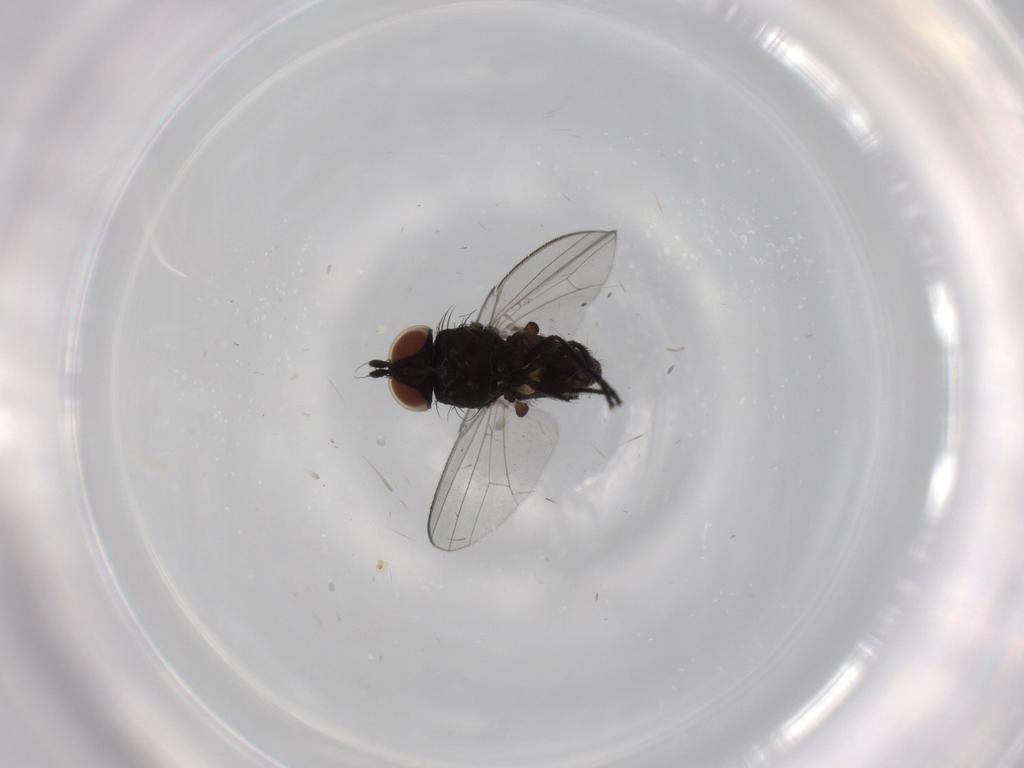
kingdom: Animalia
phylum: Arthropoda
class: Insecta
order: Diptera
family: Milichiidae
